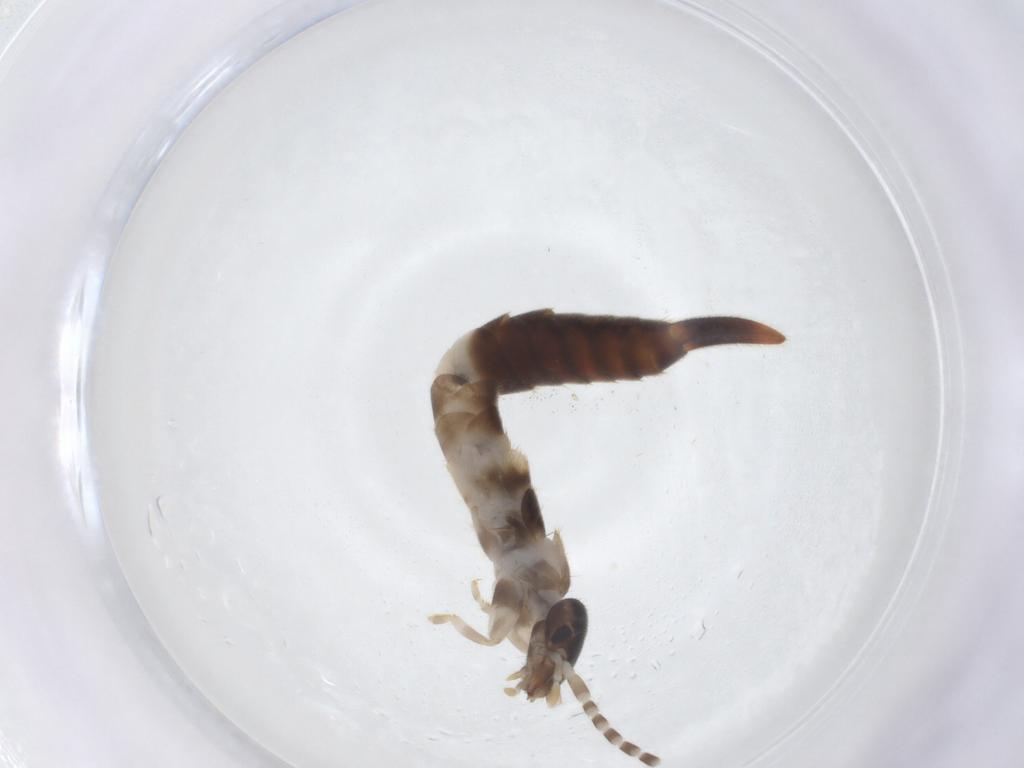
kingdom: Animalia
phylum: Arthropoda
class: Insecta
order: Dermaptera
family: Forficulidae
